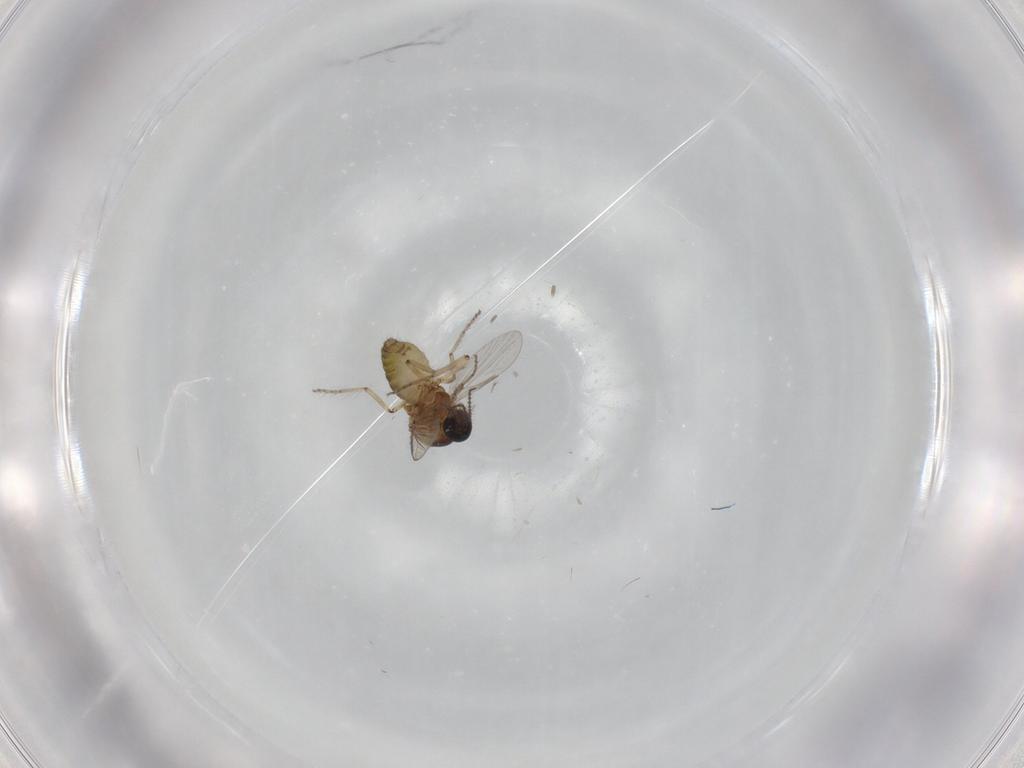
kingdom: Animalia
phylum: Arthropoda
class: Insecta
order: Diptera
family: Ceratopogonidae
